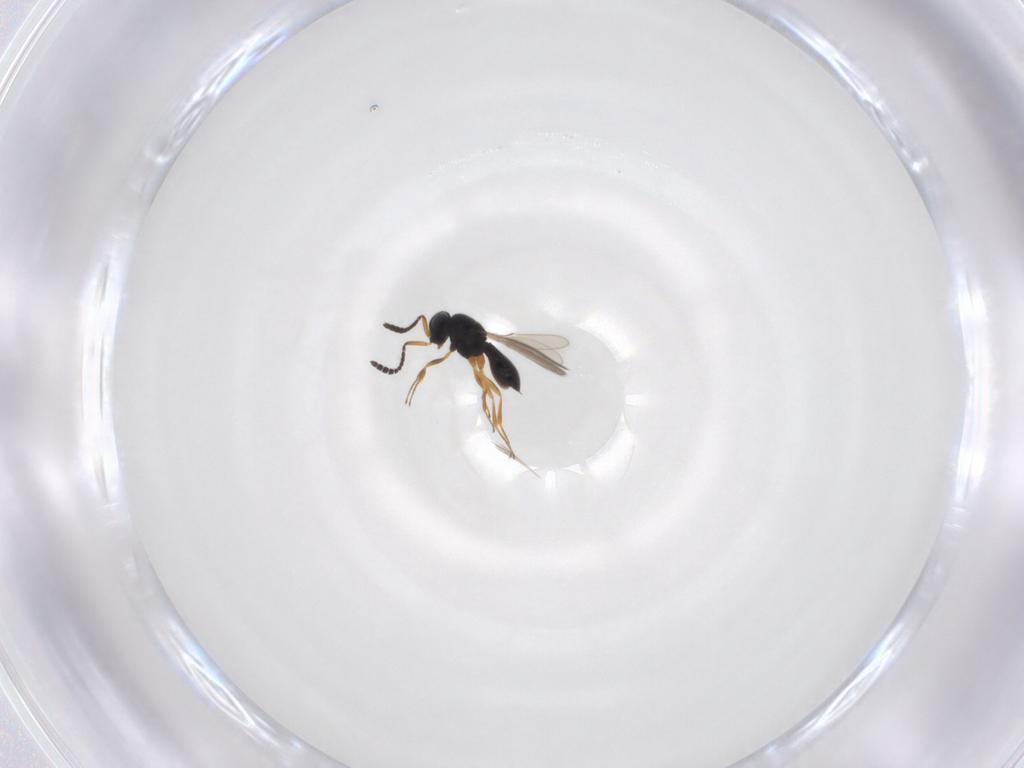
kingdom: Animalia
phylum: Arthropoda
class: Insecta
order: Hymenoptera
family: Scelionidae
